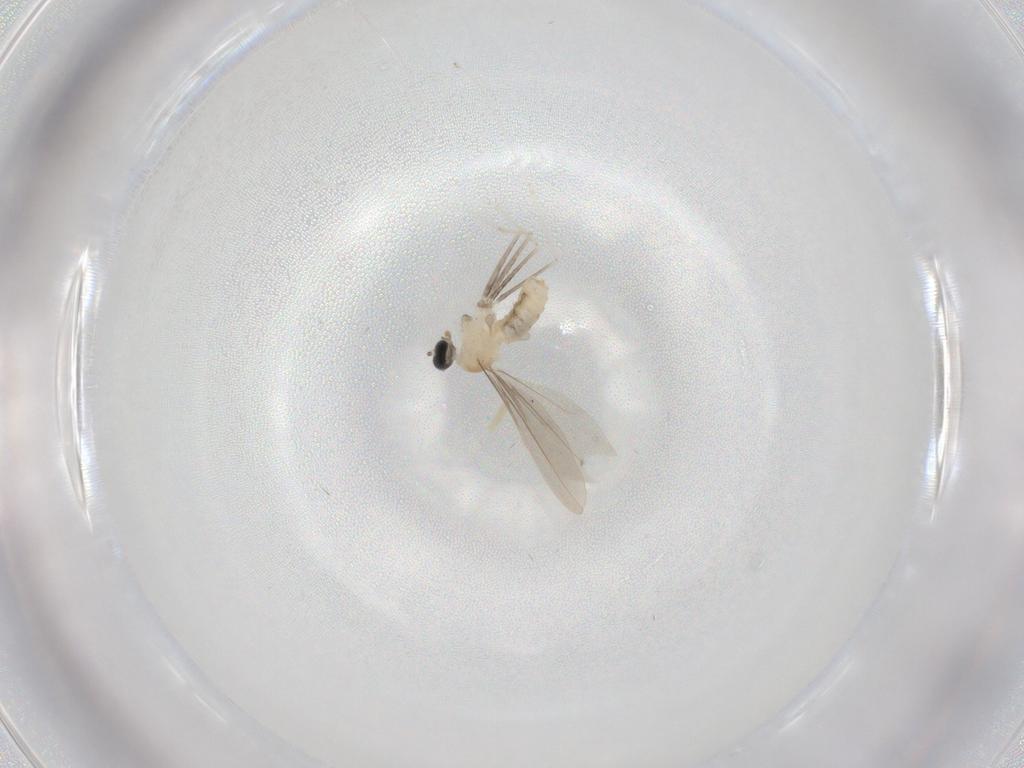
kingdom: Animalia
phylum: Arthropoda
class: Insecta
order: Diptera
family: Cecidomyiidae
